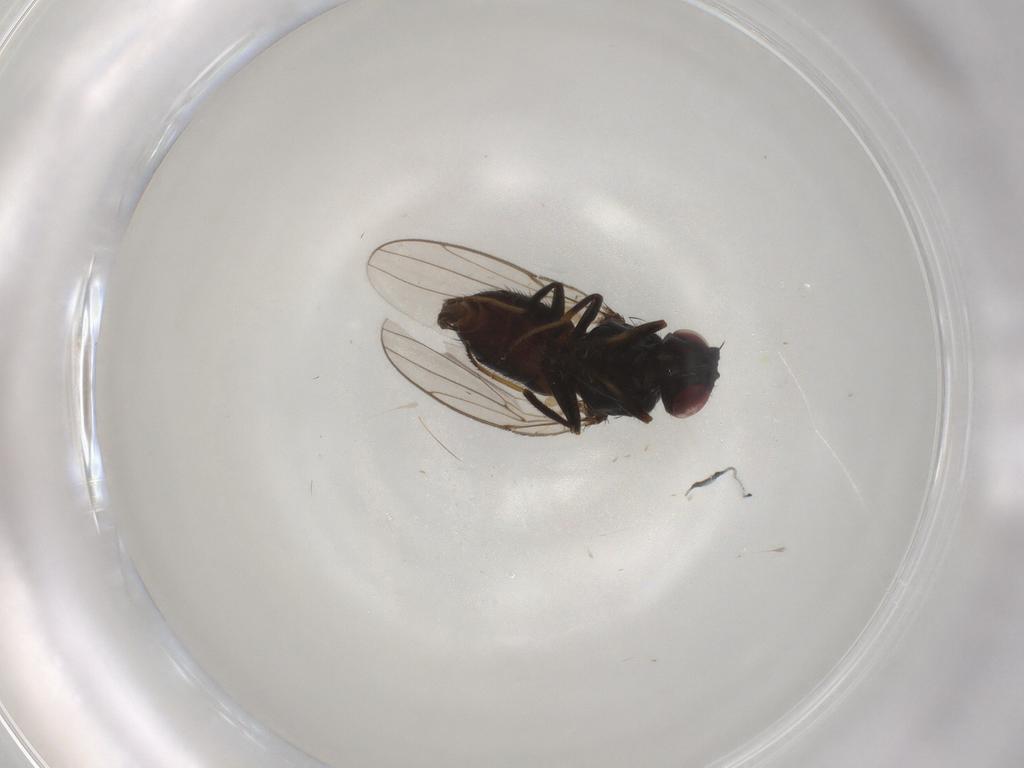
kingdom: Animalia
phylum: Arthropoda
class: Insecta
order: Diptera
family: Chloropidae
